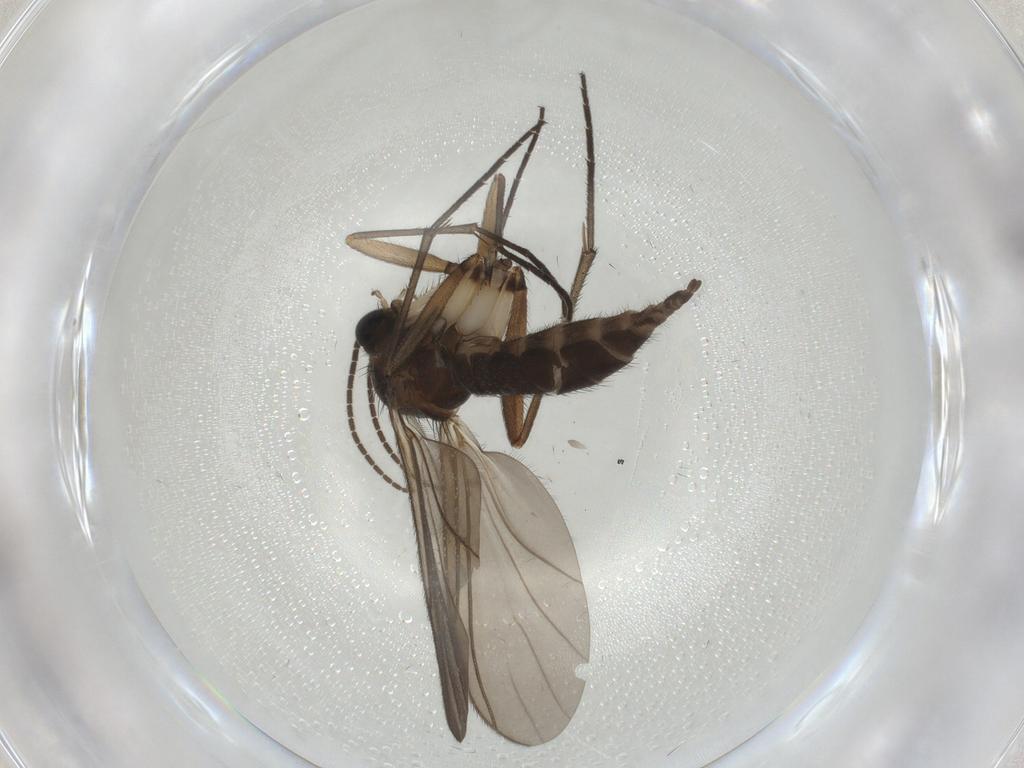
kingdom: Animalia
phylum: Arthropoda
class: Insecta
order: Diptera
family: Sciaridae
